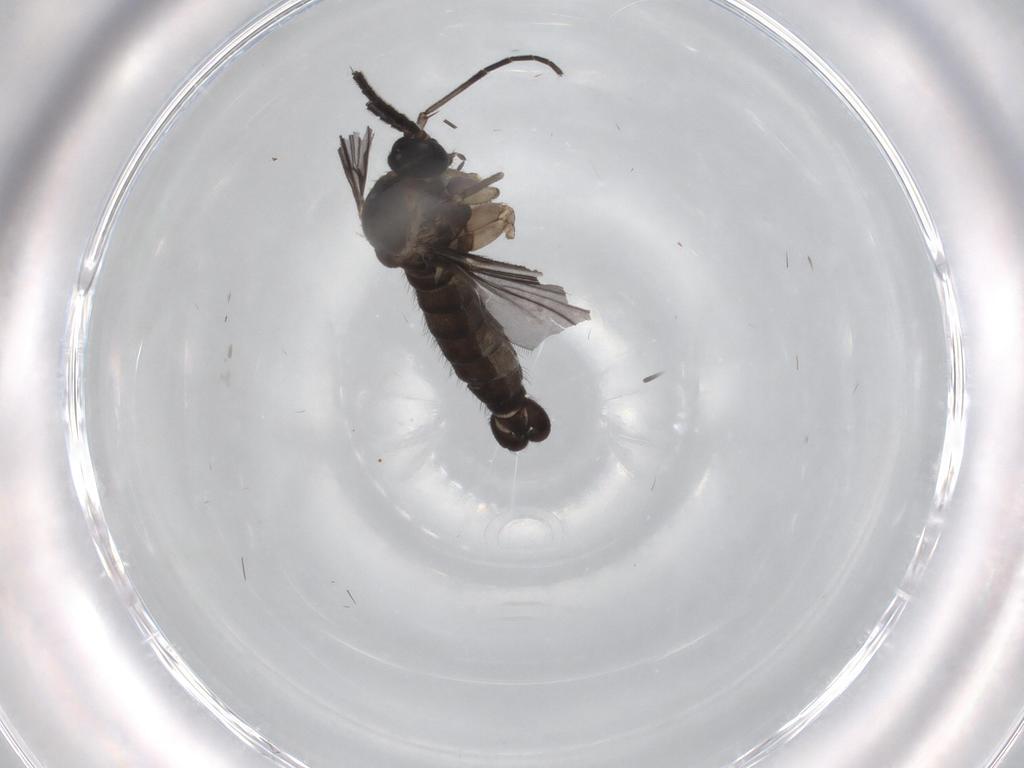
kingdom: Animalia
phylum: Arthropoda
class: Insecta
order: Diptera
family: Sciaridae
